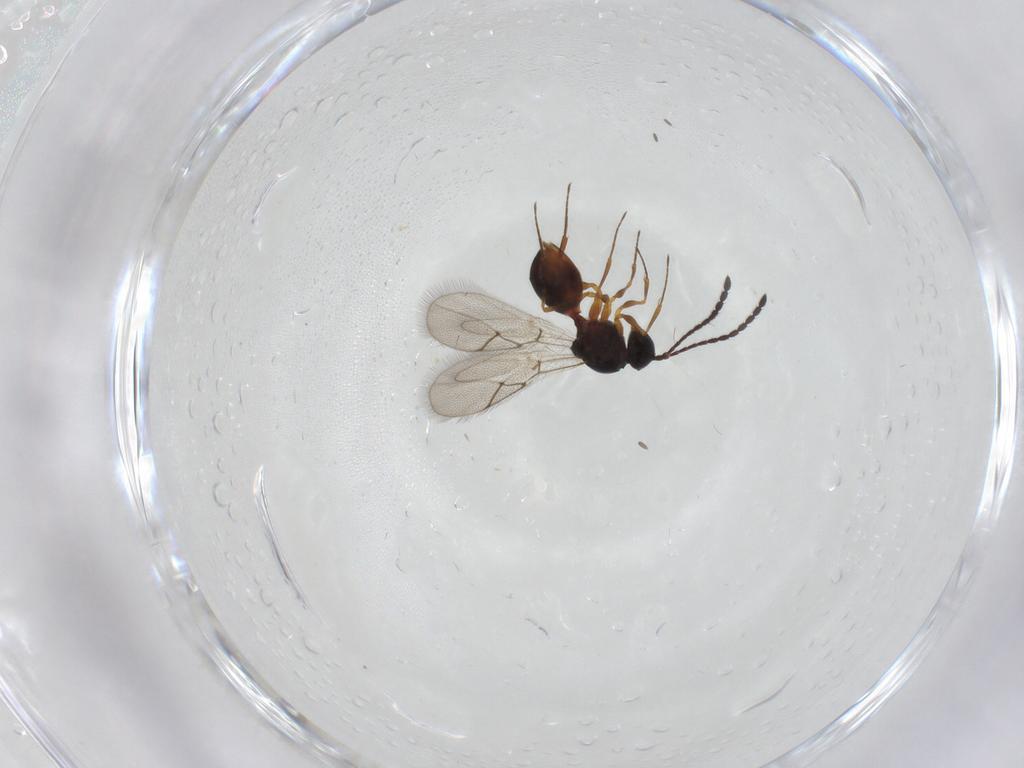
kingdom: Animalia
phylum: Arthropoda
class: Insecta
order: Hymenoptera
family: Figitidae
